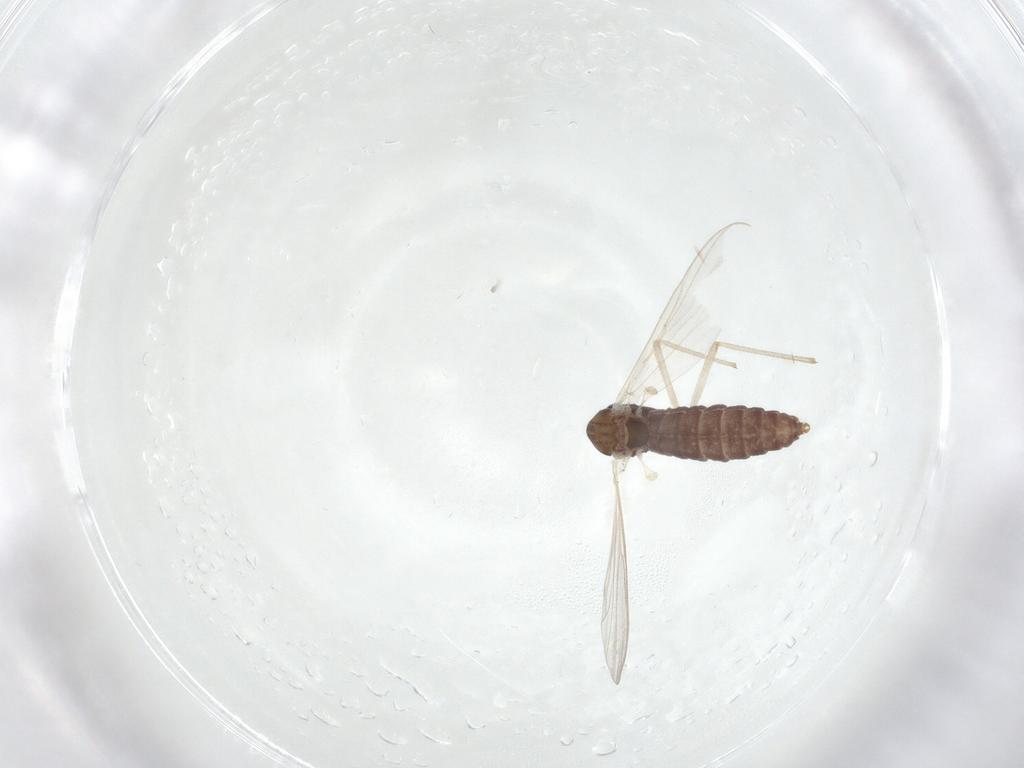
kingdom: Animalia
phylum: Arthropoda
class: Insecta
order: Diptera
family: Chironomidae
